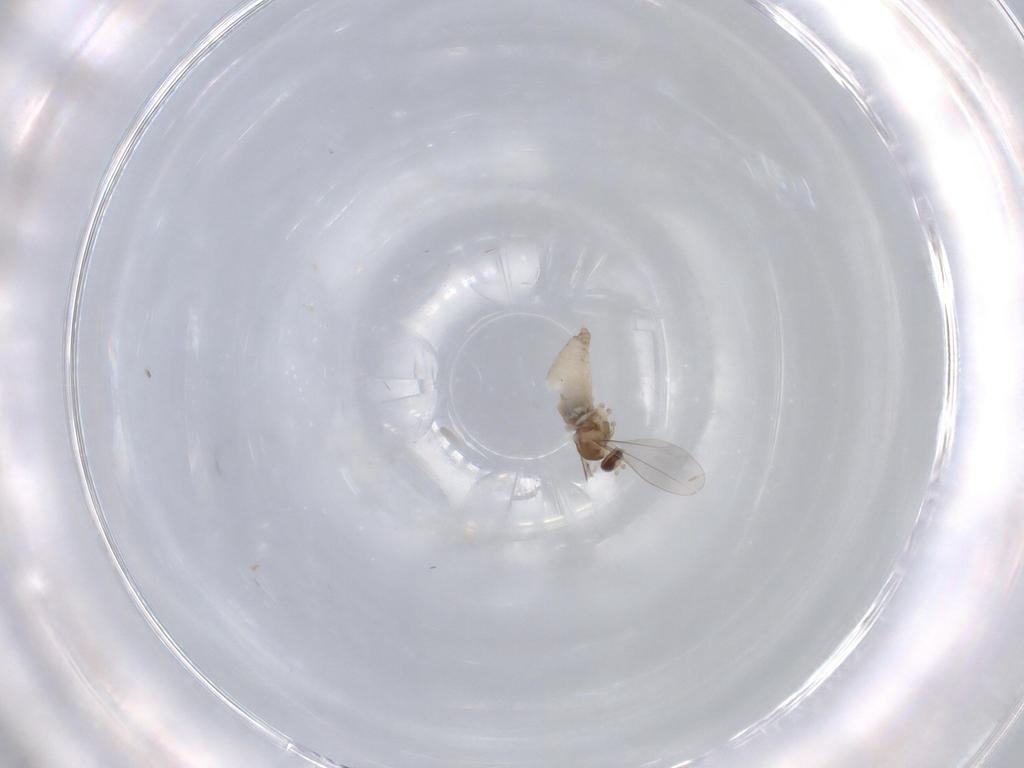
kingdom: Animalia
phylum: Arthropoda
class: Insecta
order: Diptera
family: Cecidomyiidae
